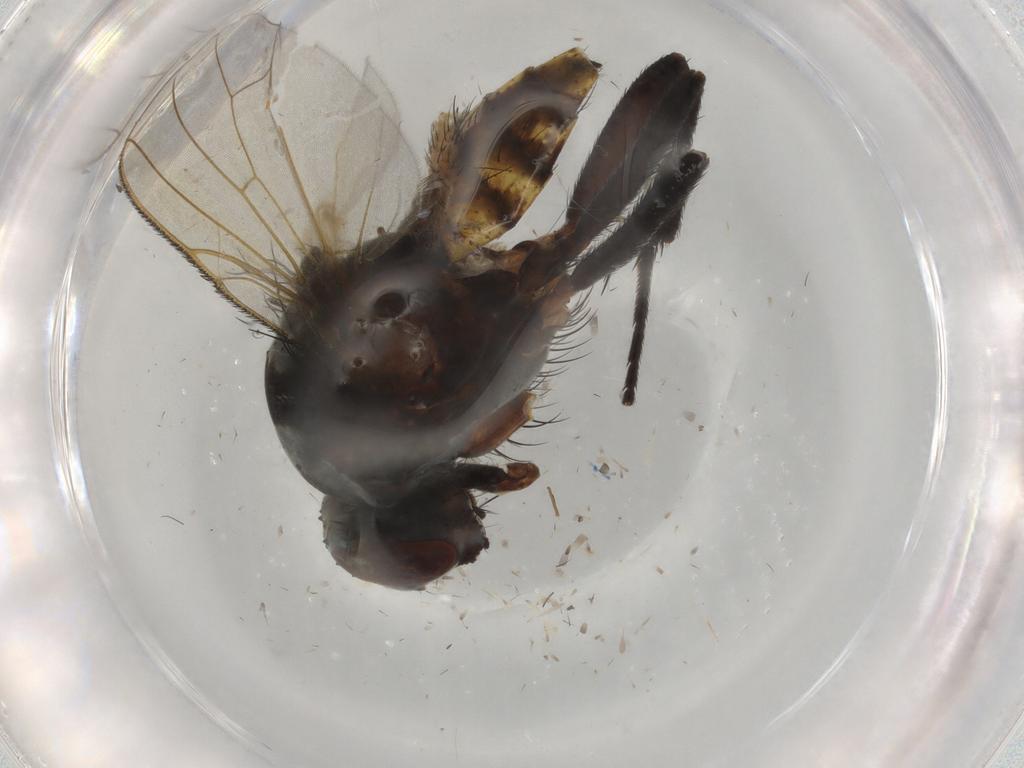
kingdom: Animalia
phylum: Arthropoda
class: Insecta
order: Diptera
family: Anthomyiidae
